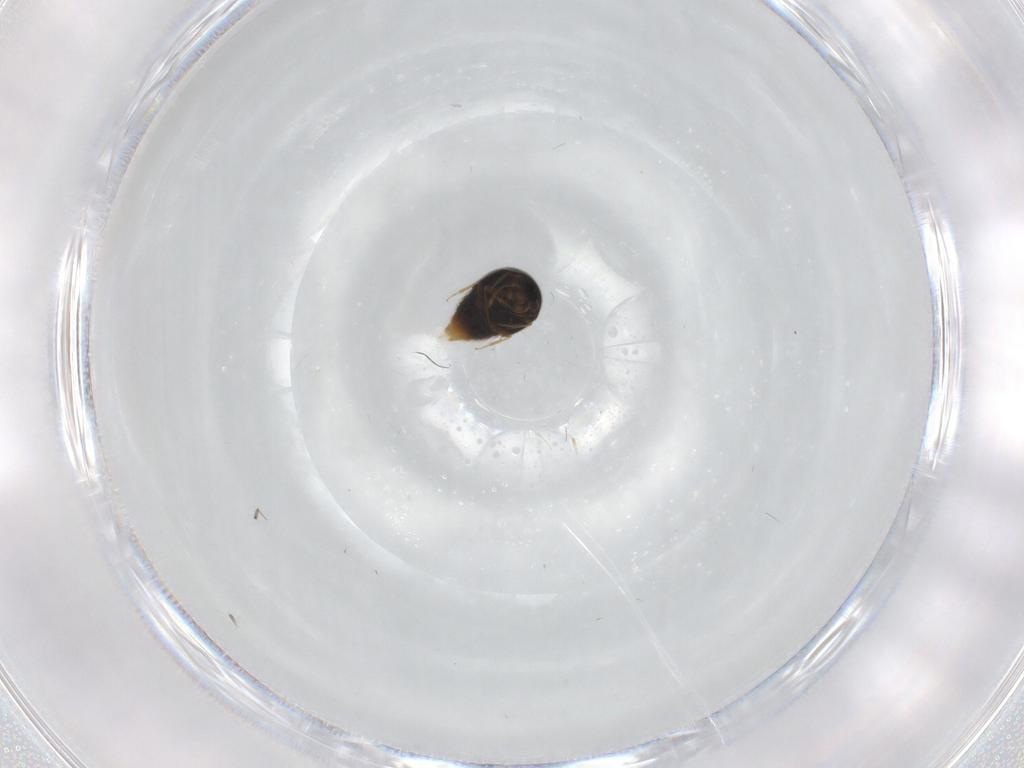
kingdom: Animalia
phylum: Arthropoda
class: Insecta
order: Coleoptera
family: Staphylinidae
